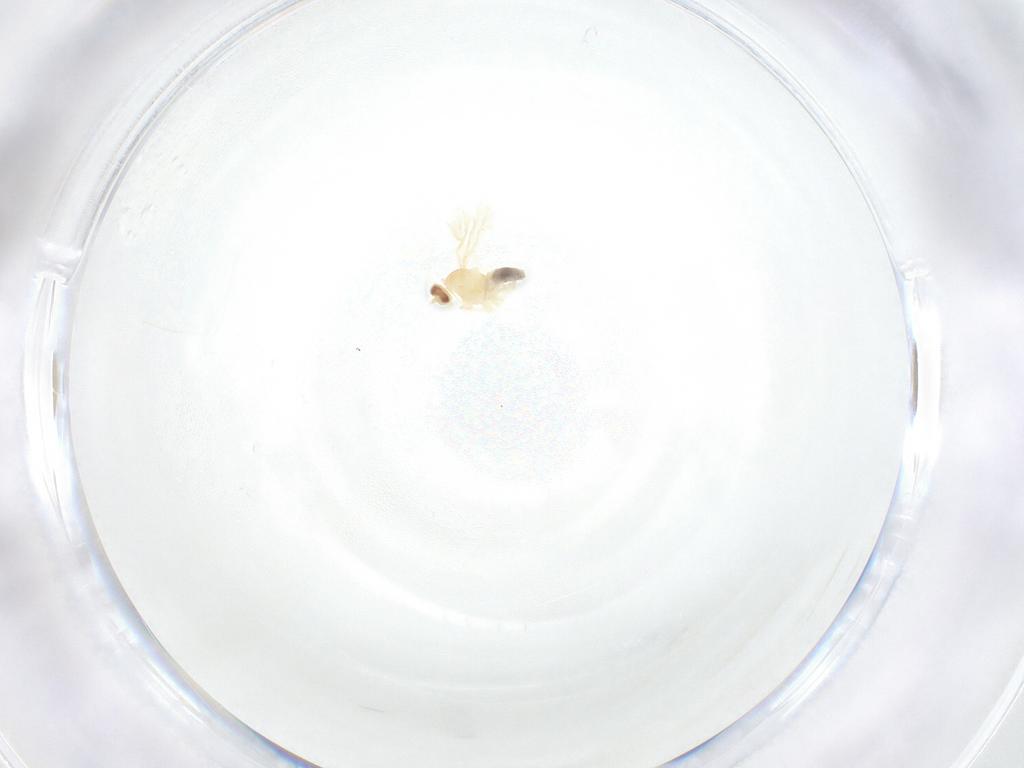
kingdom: Animalia
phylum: Arthropoda
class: Insecta
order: Diptera
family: Cecidomyiidae
